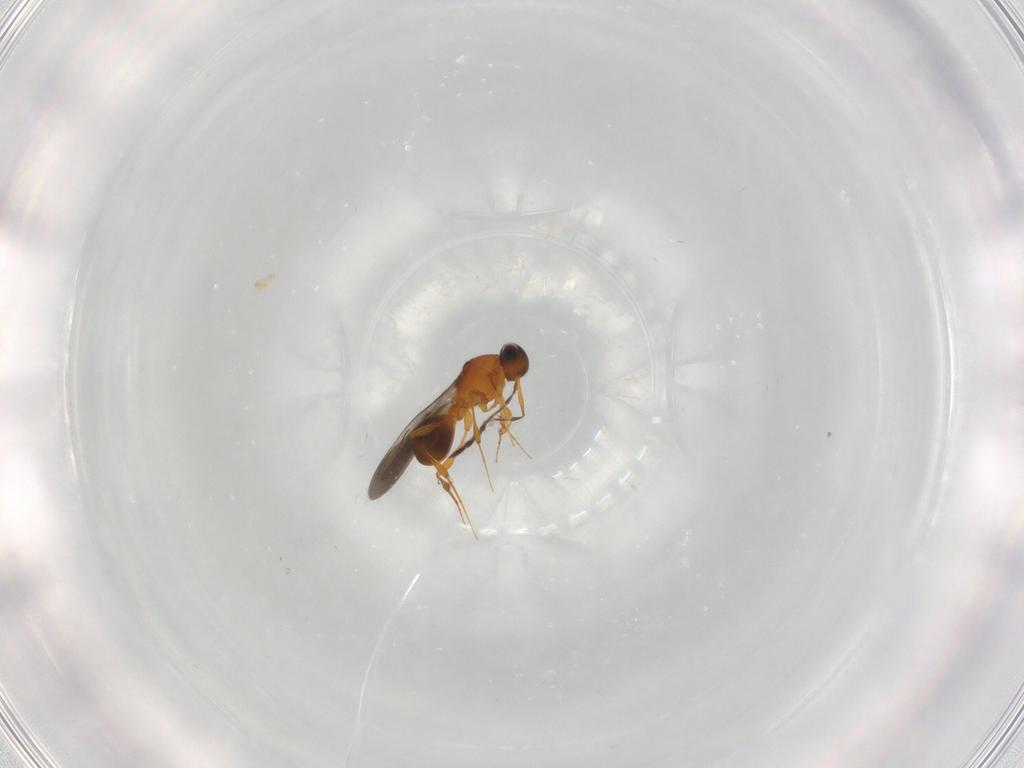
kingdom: Animalia
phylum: Arthropoda
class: Insecta
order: Hymenoptera
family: Platygastridae
